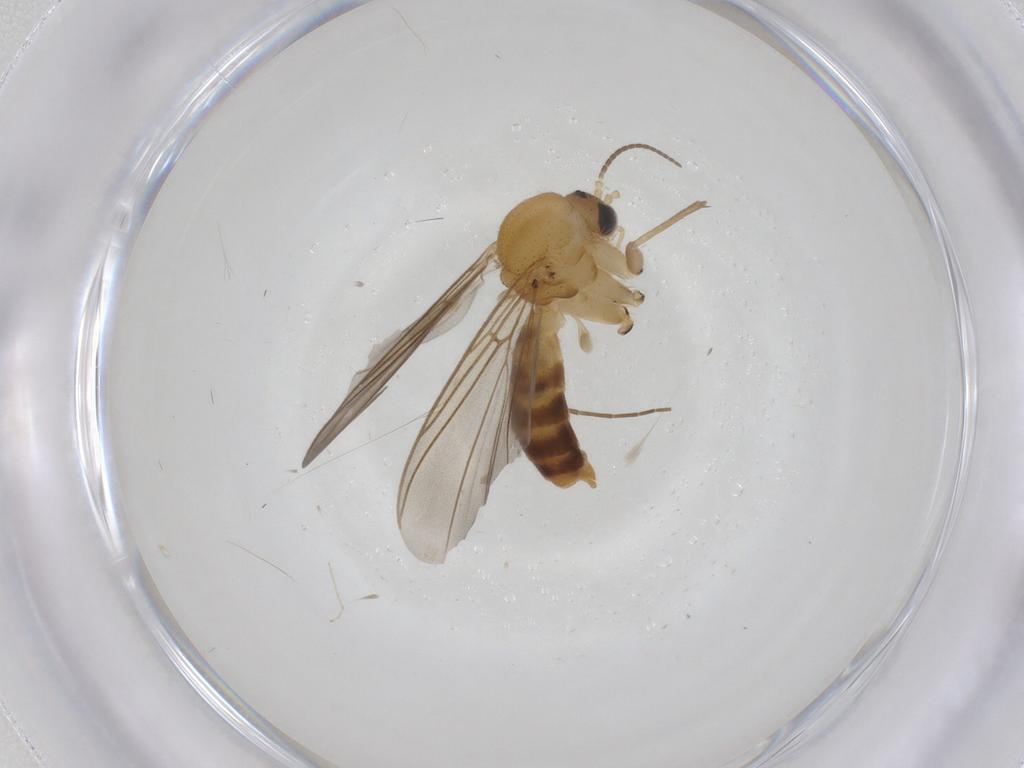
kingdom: Animalia
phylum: Arthropoda
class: Insecta
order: Diptera
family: Mycetophilidae
